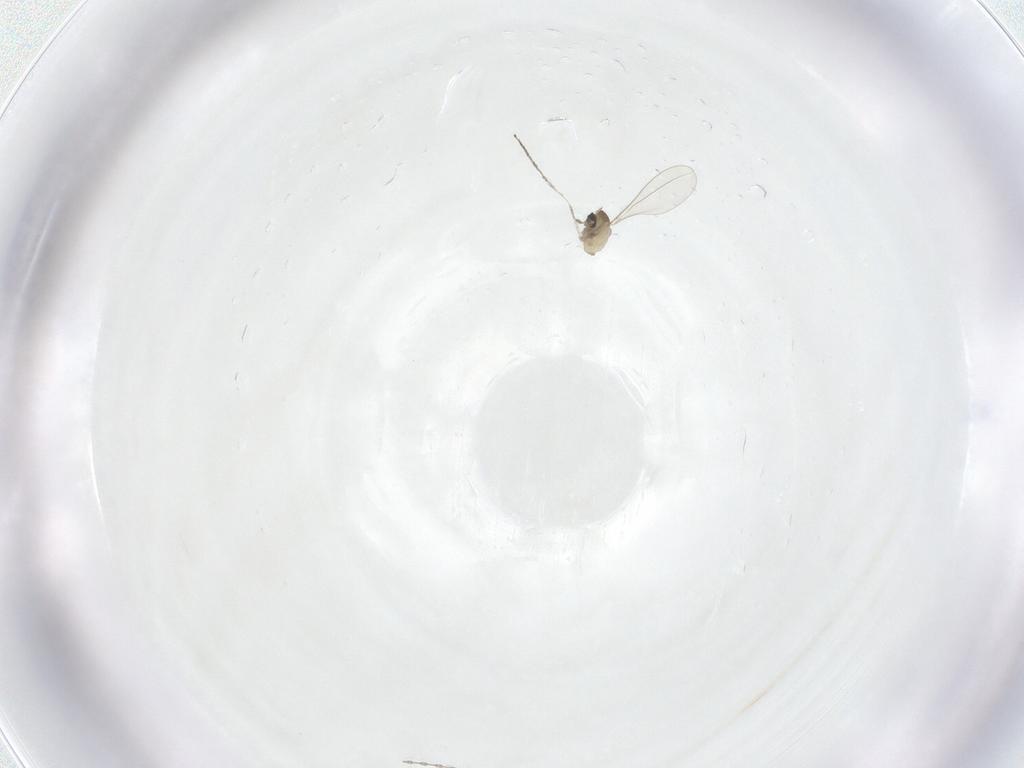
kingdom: Animalia
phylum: Arthropoda
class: Insecta
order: Diptera
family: Cecidomyiidae
